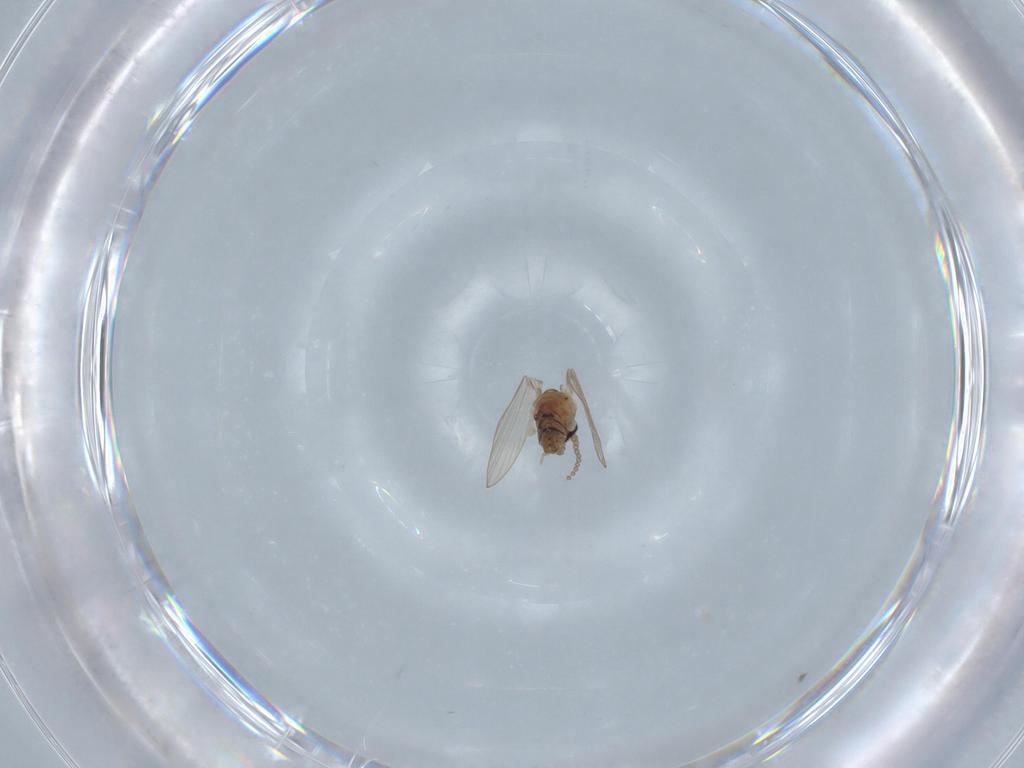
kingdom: Animalia
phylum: Arthropoda
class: Insecta
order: Diptera
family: Psychodidae
